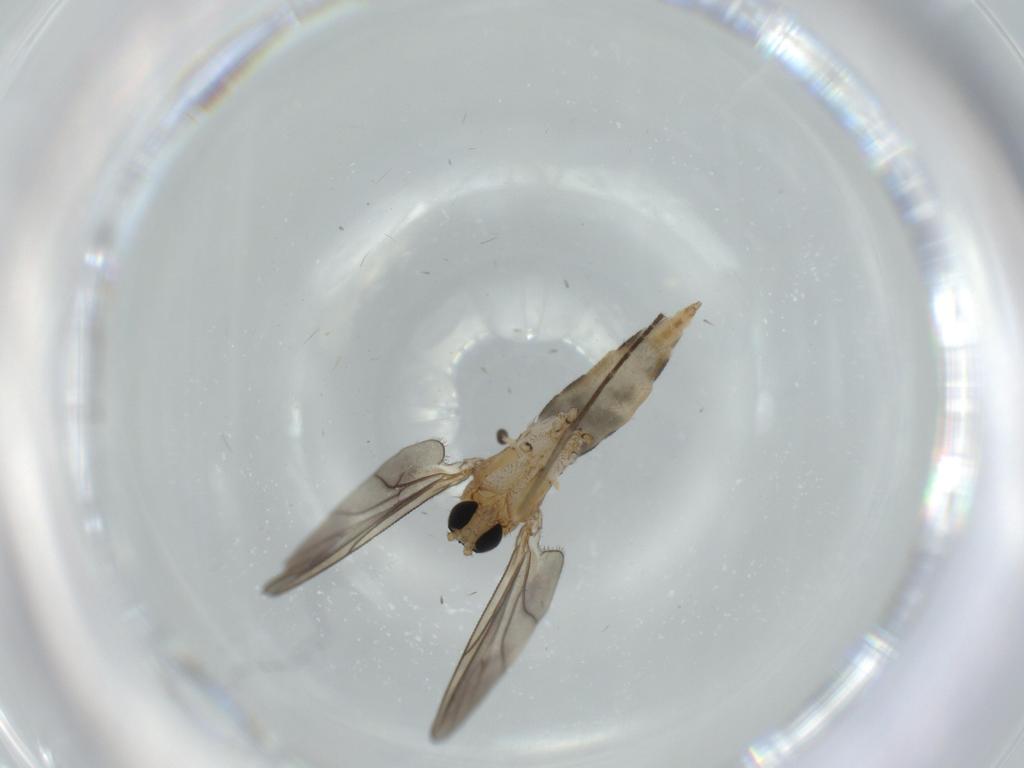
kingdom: Animalia
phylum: Arthropoda
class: Insecta
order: Diptera
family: Sciaridae
